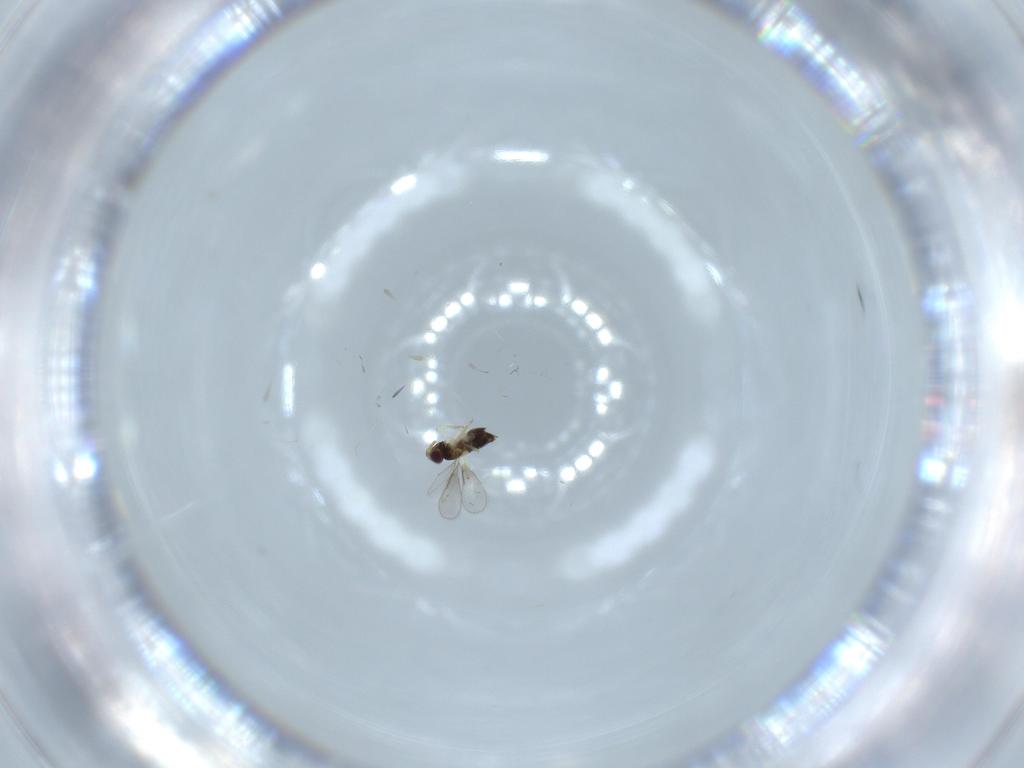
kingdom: Animalia
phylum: Arthropoda
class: Insecta
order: Hymenoptera
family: Aphelinidae
